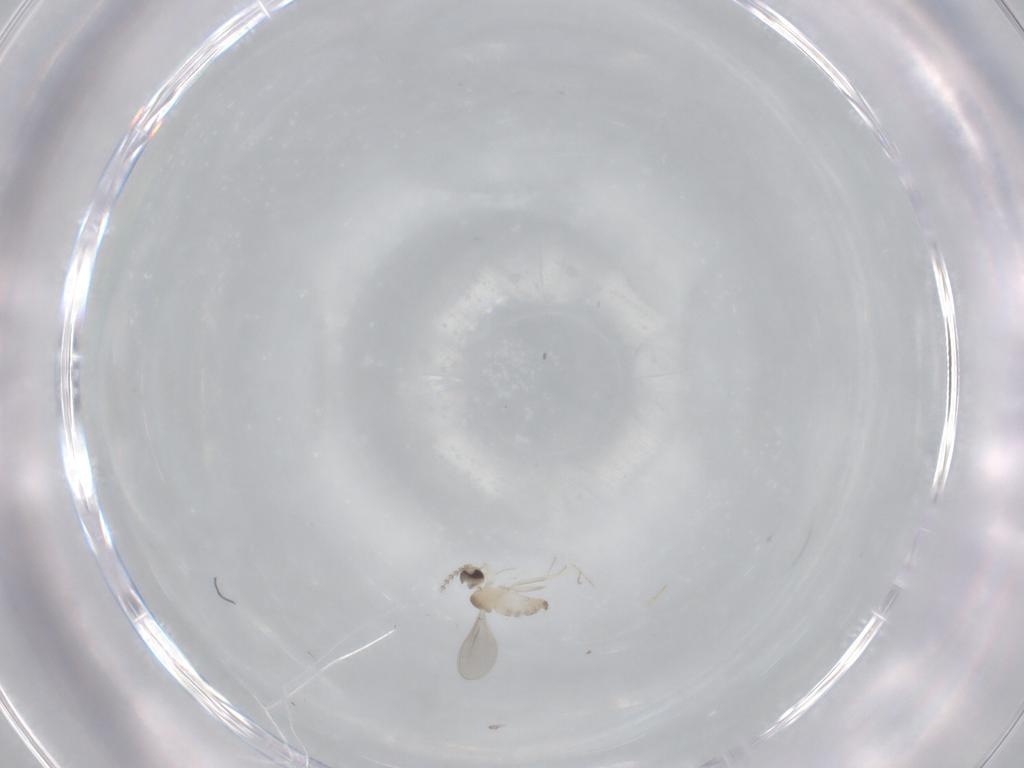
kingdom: Animalia
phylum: Arthropoda
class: Insecta
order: Diptera
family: Cecidomyiidae
